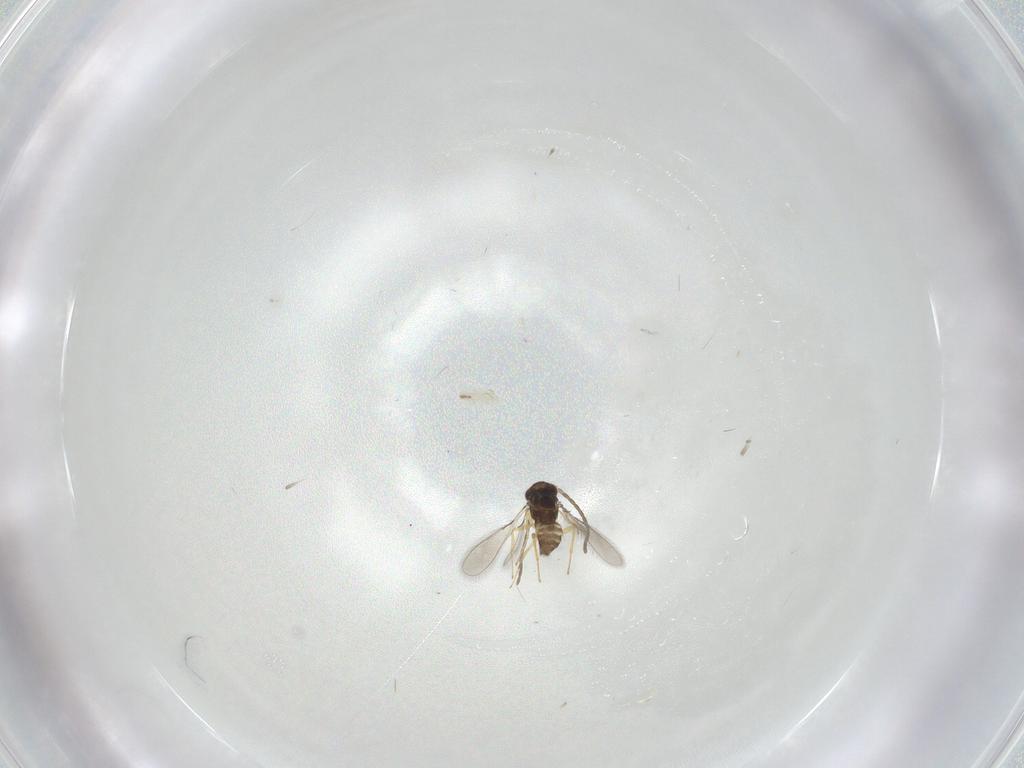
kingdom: Animalia
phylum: Arthropoda
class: Insecta
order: Hymenoptera
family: Mymaridae
